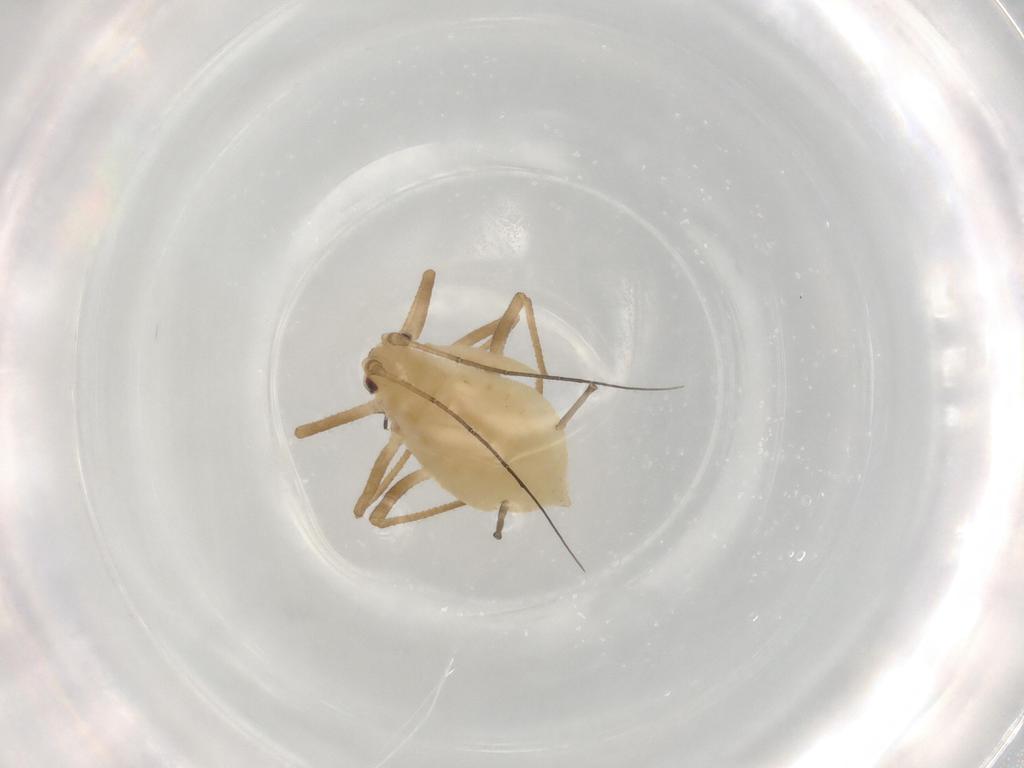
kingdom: Animalia
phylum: Arthropoda
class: Insecta
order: Hemiptera
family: Aphididae
